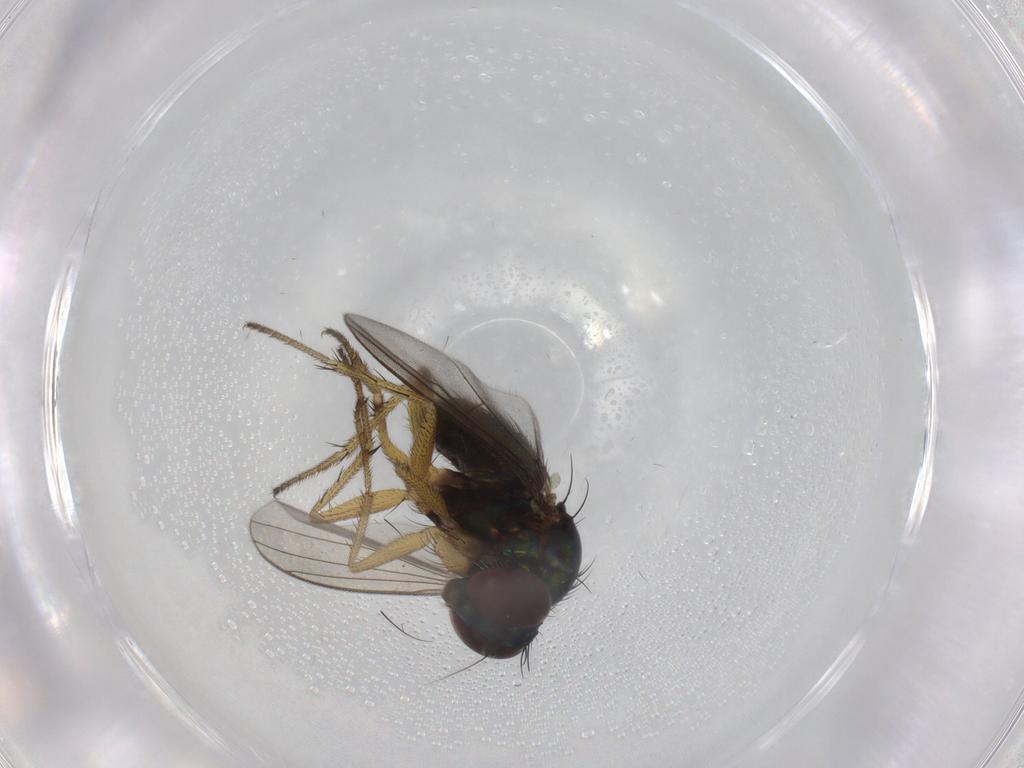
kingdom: Animalia
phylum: Arthropoda
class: Insecta
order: Diptera
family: Dolichopodidae
